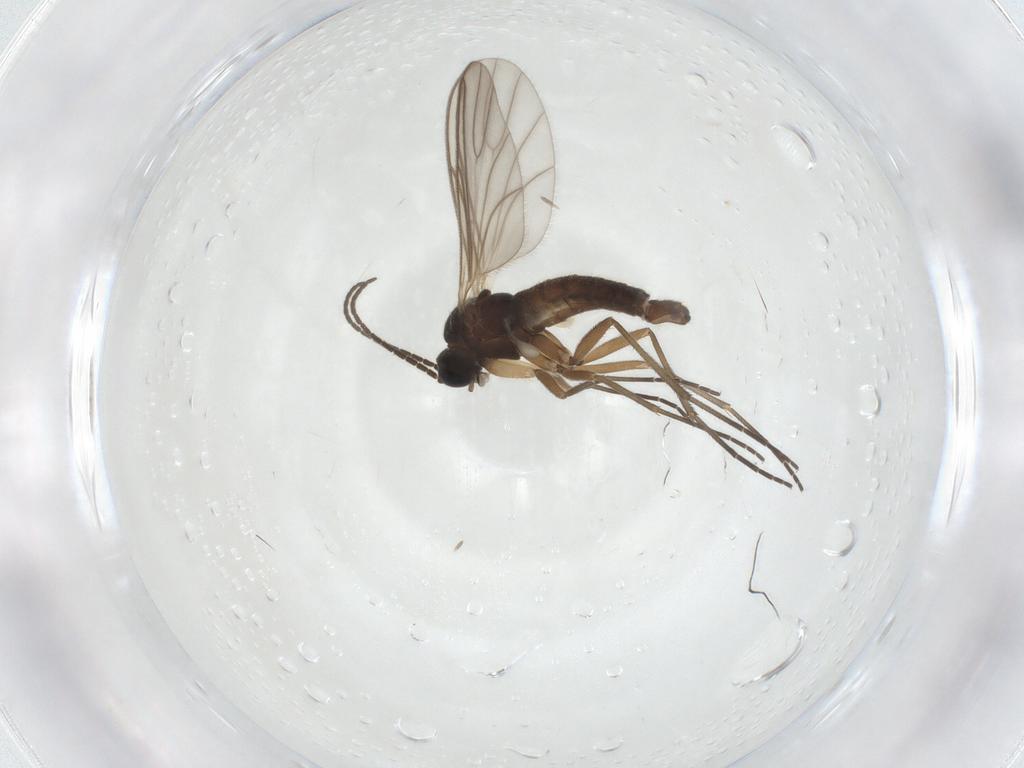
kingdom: Animalia
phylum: Arthropoda
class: Insecta
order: Diptera
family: Sciaridae
